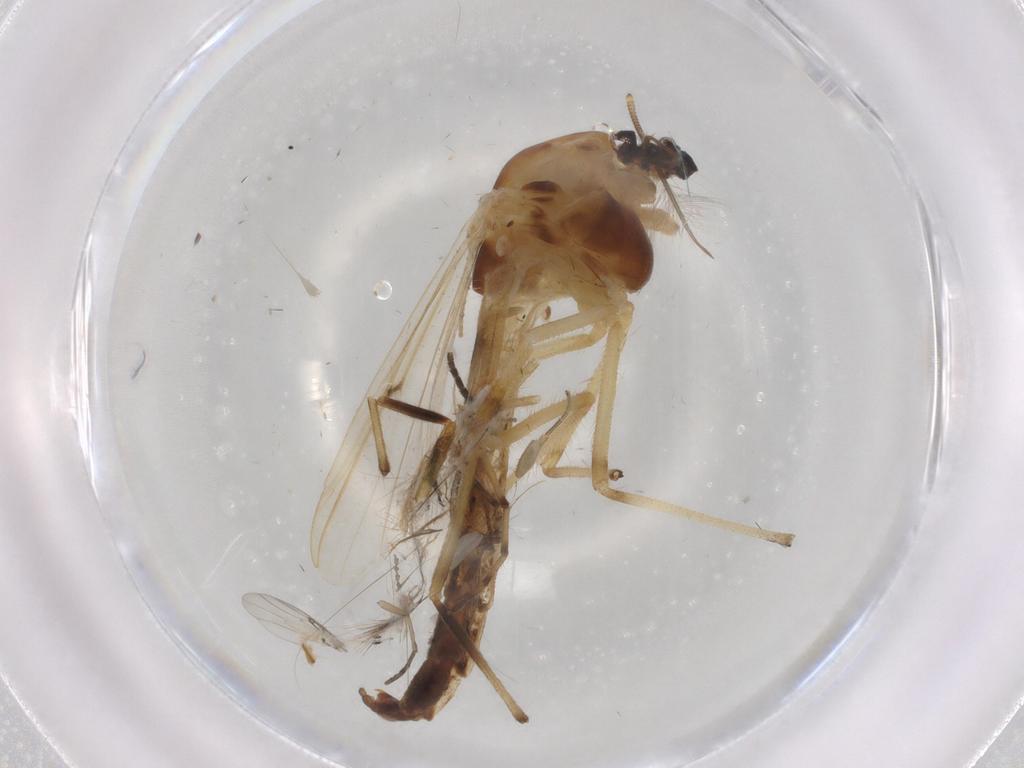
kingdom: Animalia
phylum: Arthropoda
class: Insecta
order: Diptera
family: Chironomidae
